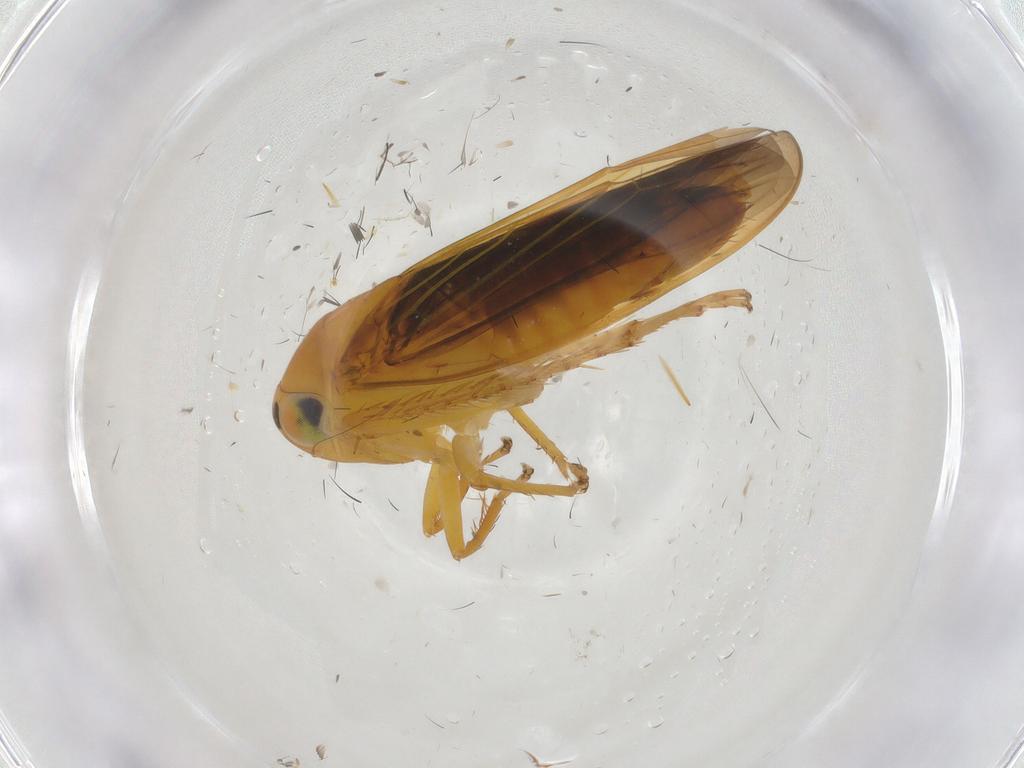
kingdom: Animalia
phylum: Arthropoda
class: Insecta
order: Hemiptera
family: Cicadellidae
